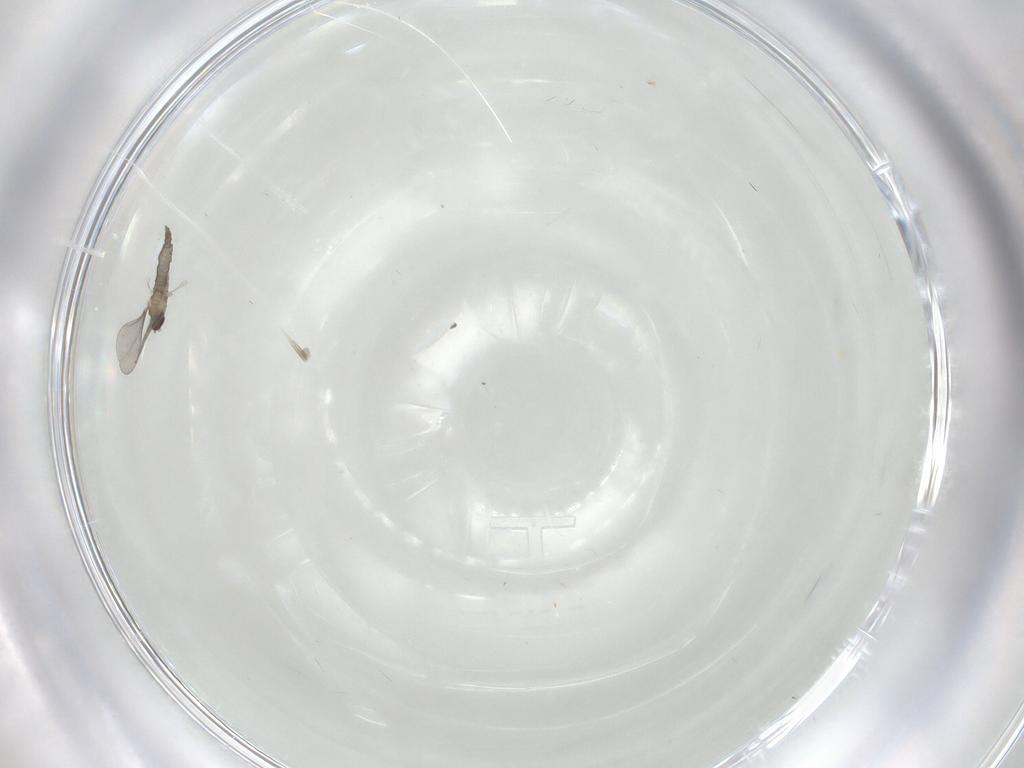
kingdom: Animalia
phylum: Arthropoda
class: Insecta
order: Diptera
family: Cecidomyiidae
